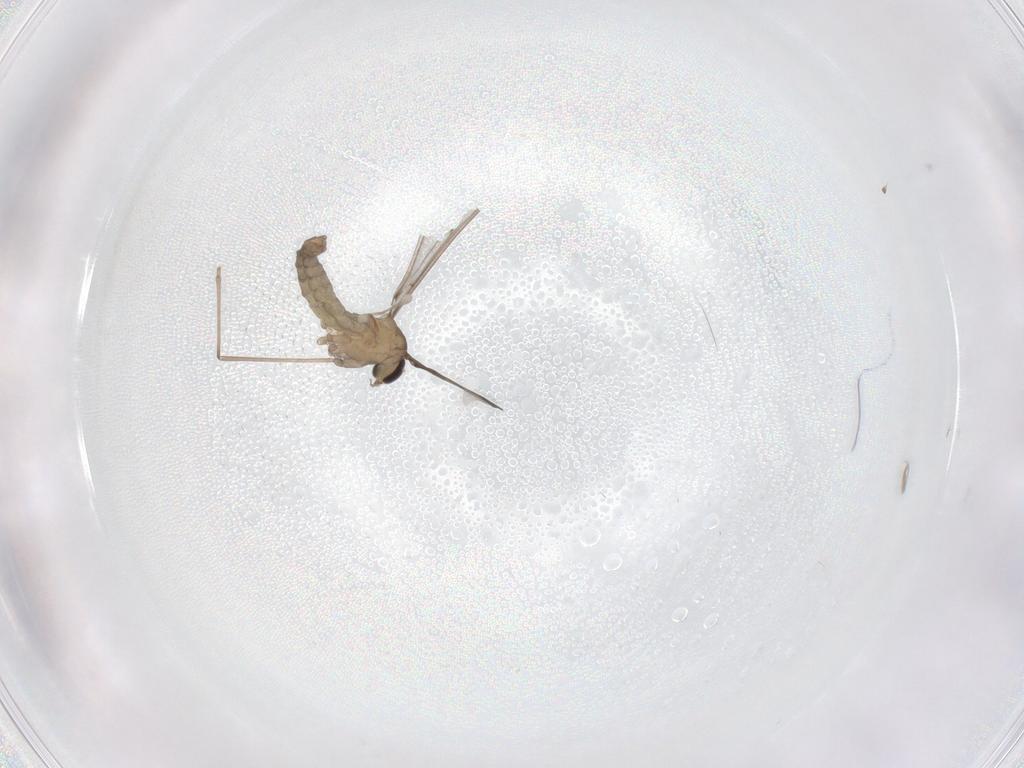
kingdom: Animalia
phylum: Arthropoda
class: Insecta
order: Diptera
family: Cecidomyiidae
